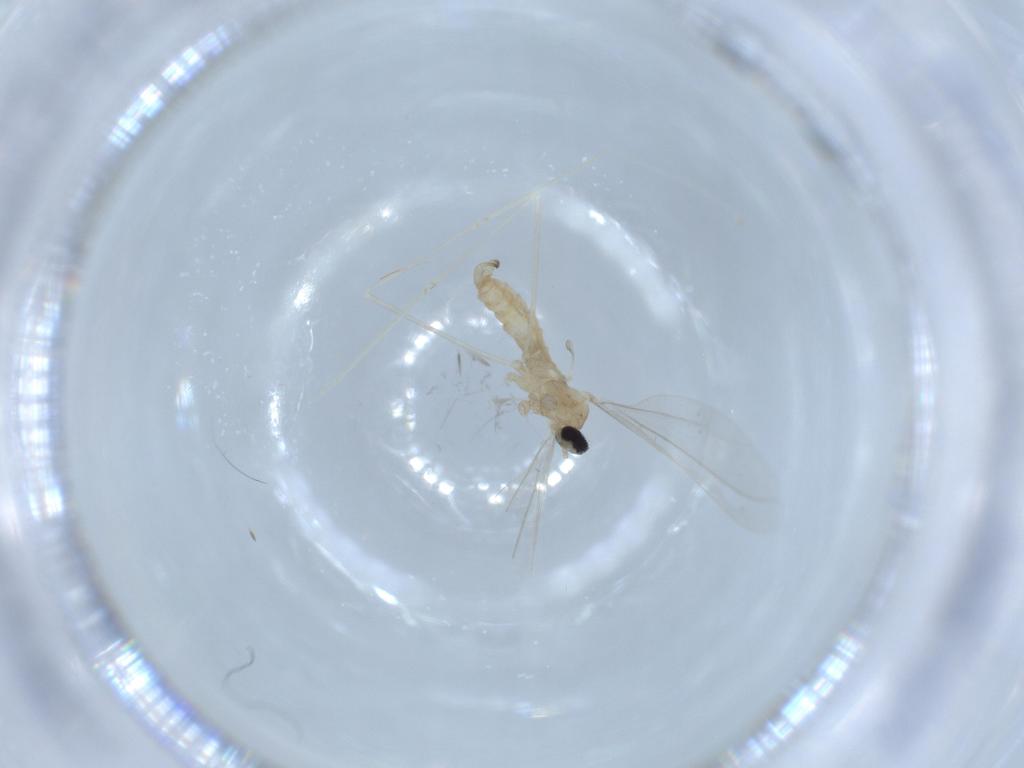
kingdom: Animalia
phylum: Arthropoda
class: Insecta
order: Diptera
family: Cecidomyiidae
